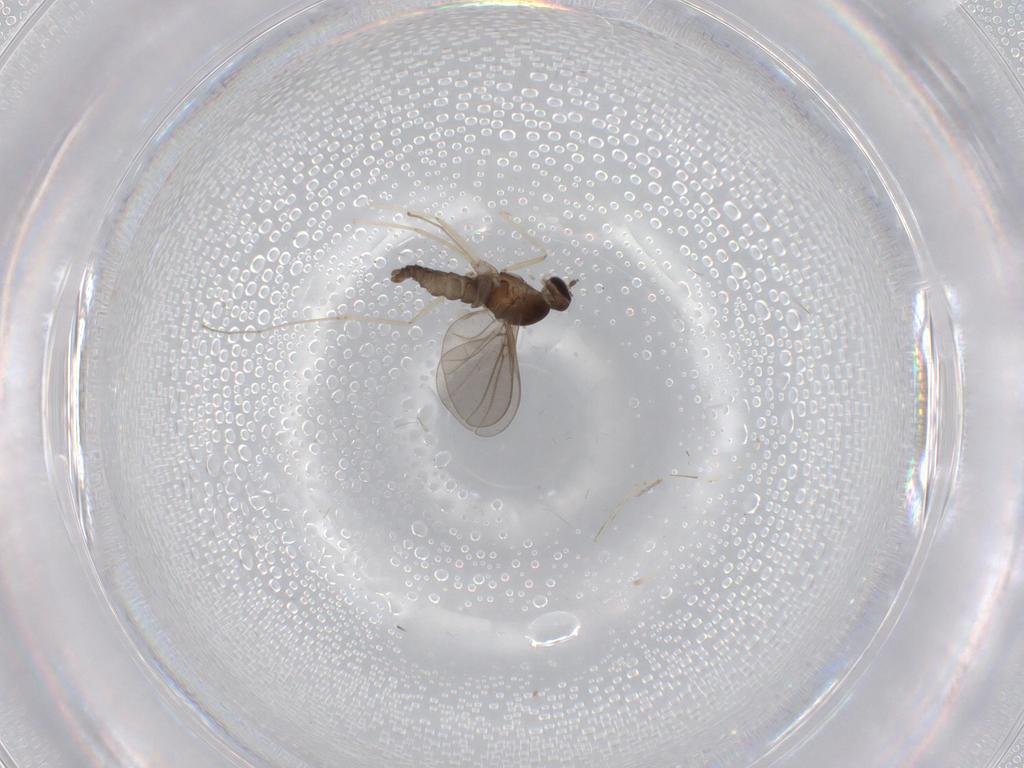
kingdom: Animalia
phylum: Arthropoda
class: Insecta
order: Diptera
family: Cecidomyiidae
